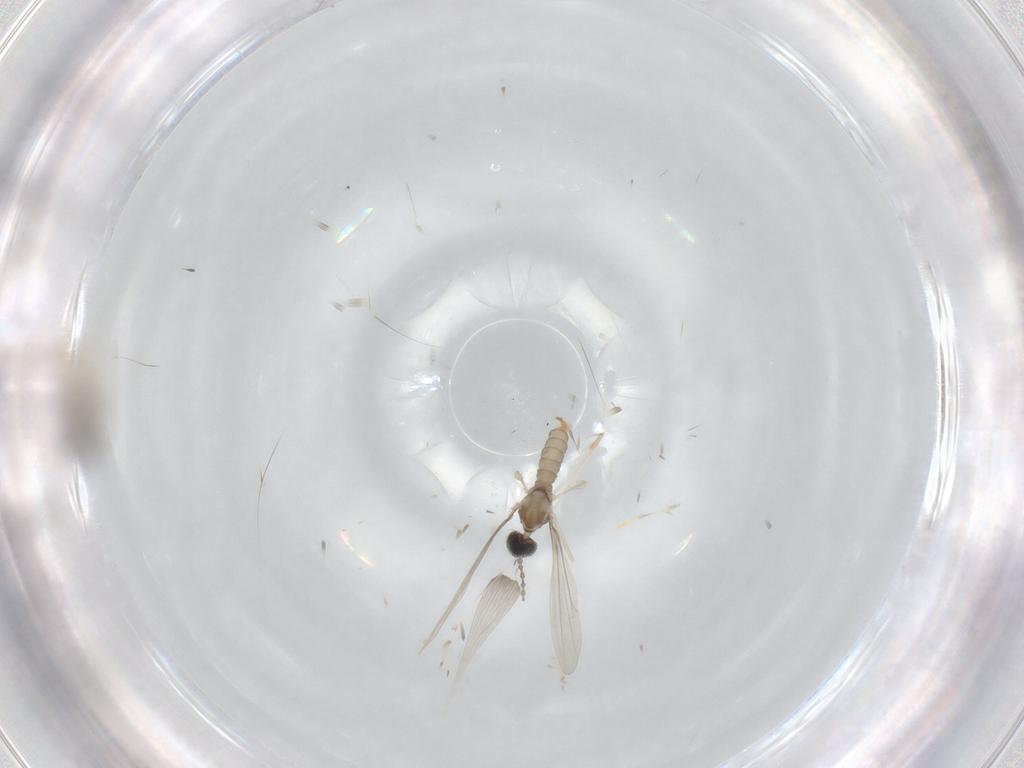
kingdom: Animalia
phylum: Arthropoda
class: Insecta
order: Diptera
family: Cecidomyiidae
